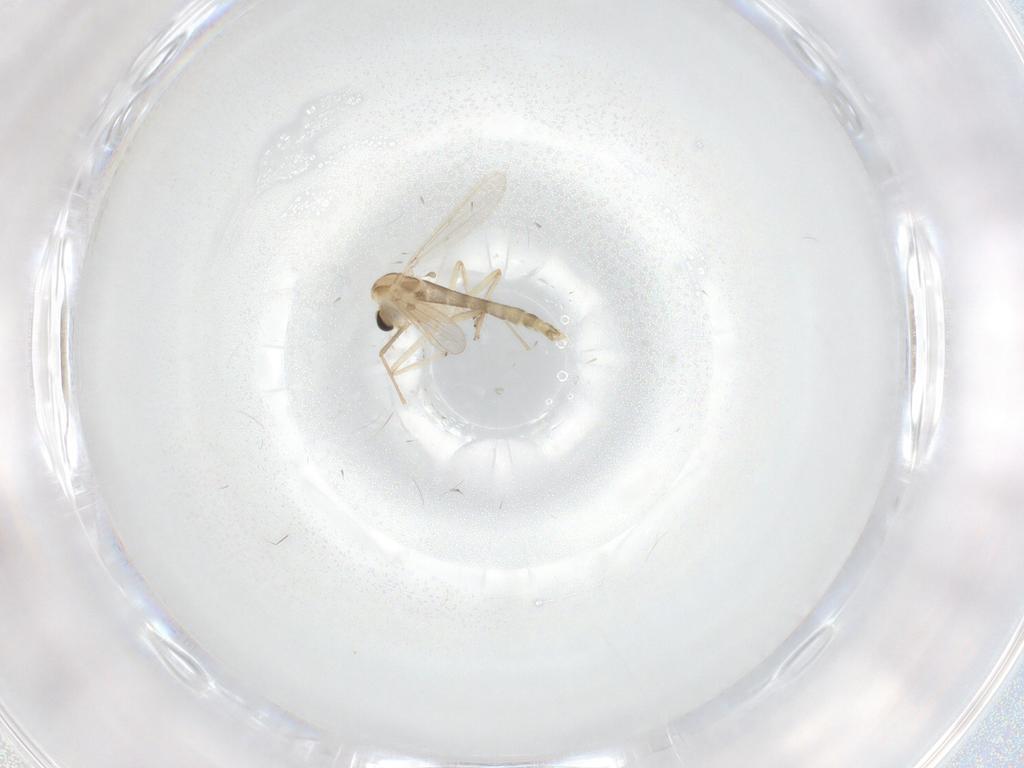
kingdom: Animalia
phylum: Arthropoda
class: Insecta
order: Diptera
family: Chironomidae
